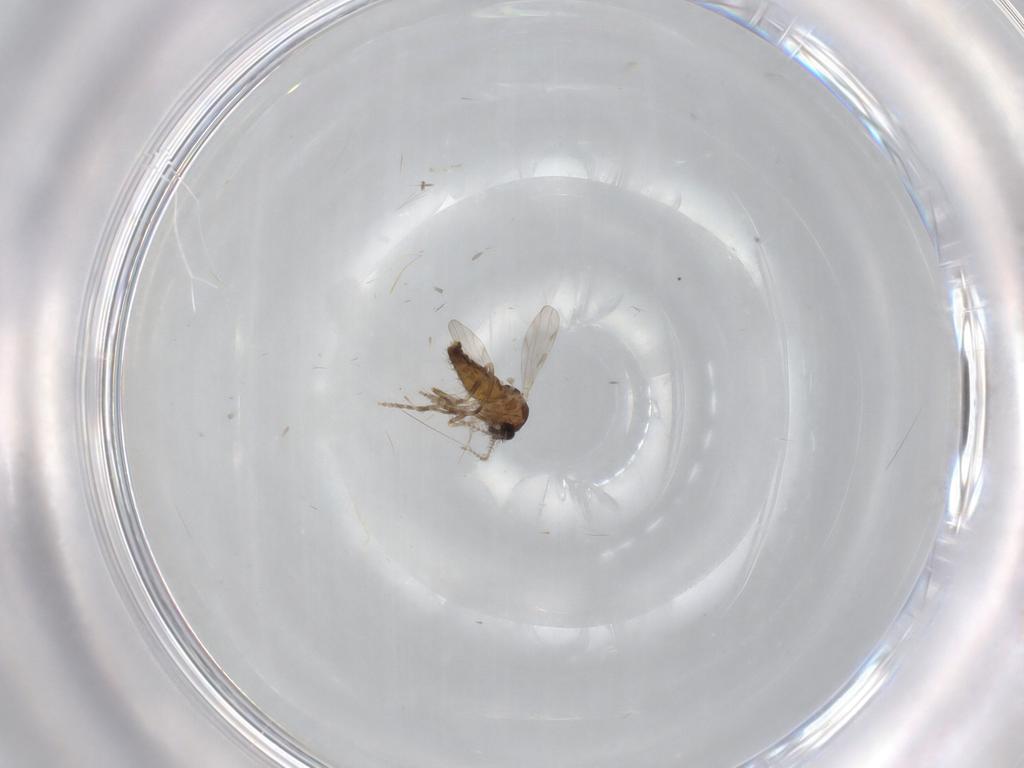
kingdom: Animalia
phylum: Arthropoda
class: Insecta
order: Diptera
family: Ceratopogonidae
